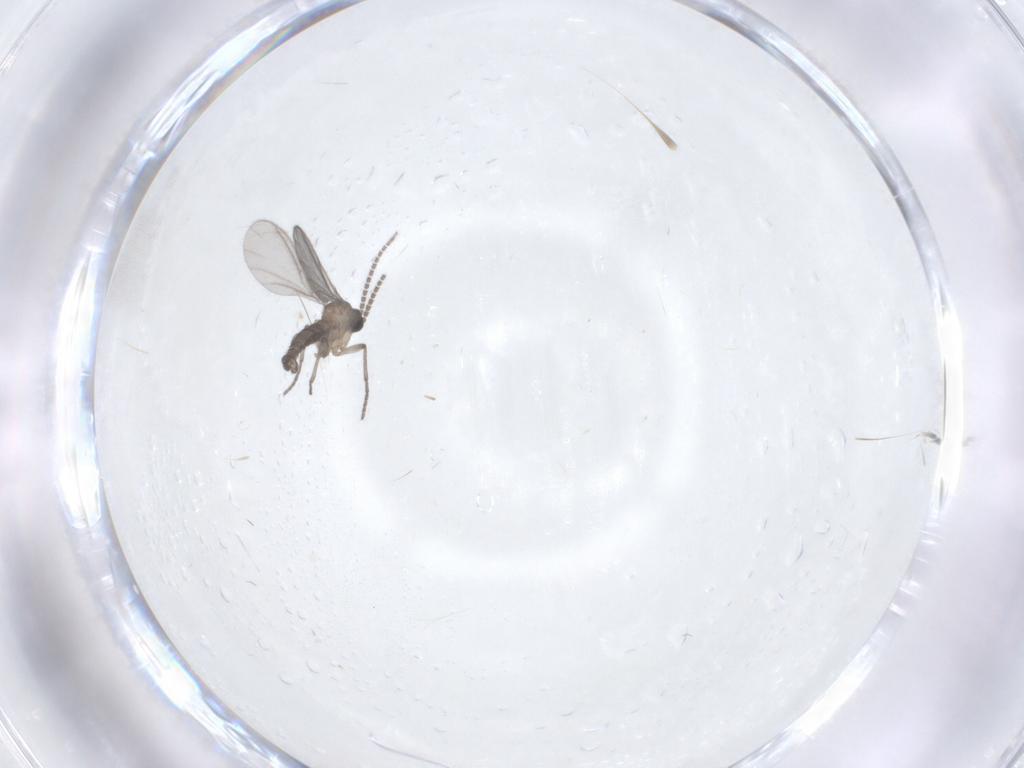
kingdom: Animalia
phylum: Arthropoda
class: Insecta
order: Diptera
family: Sciaridae
